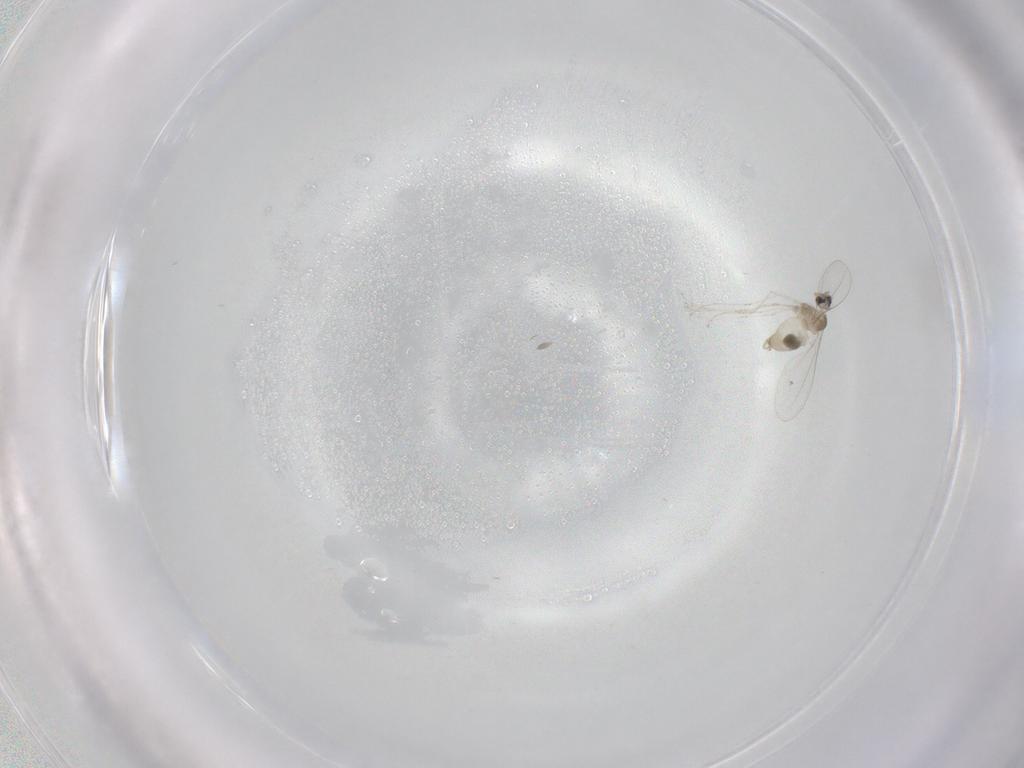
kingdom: Animalia
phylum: Arthropoda
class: Insecta
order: Diptera
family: Cecidomyiidae
